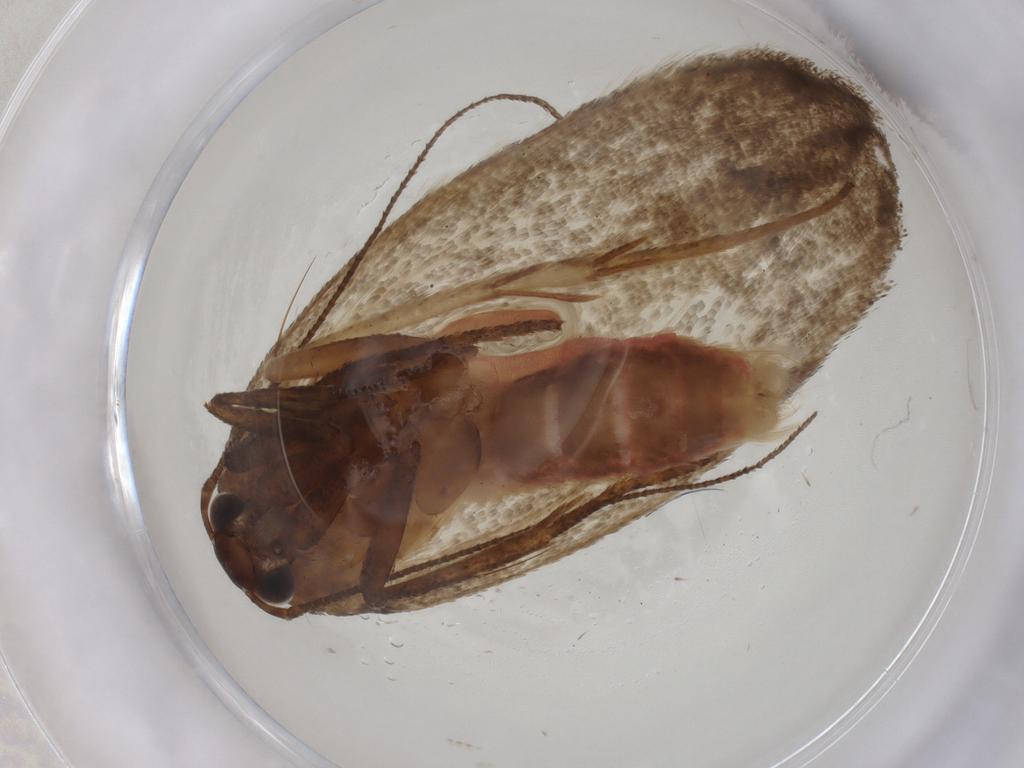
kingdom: Animalia
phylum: Arthropoda
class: Insecta
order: Lepidoptera
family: Cosmopterigidae
